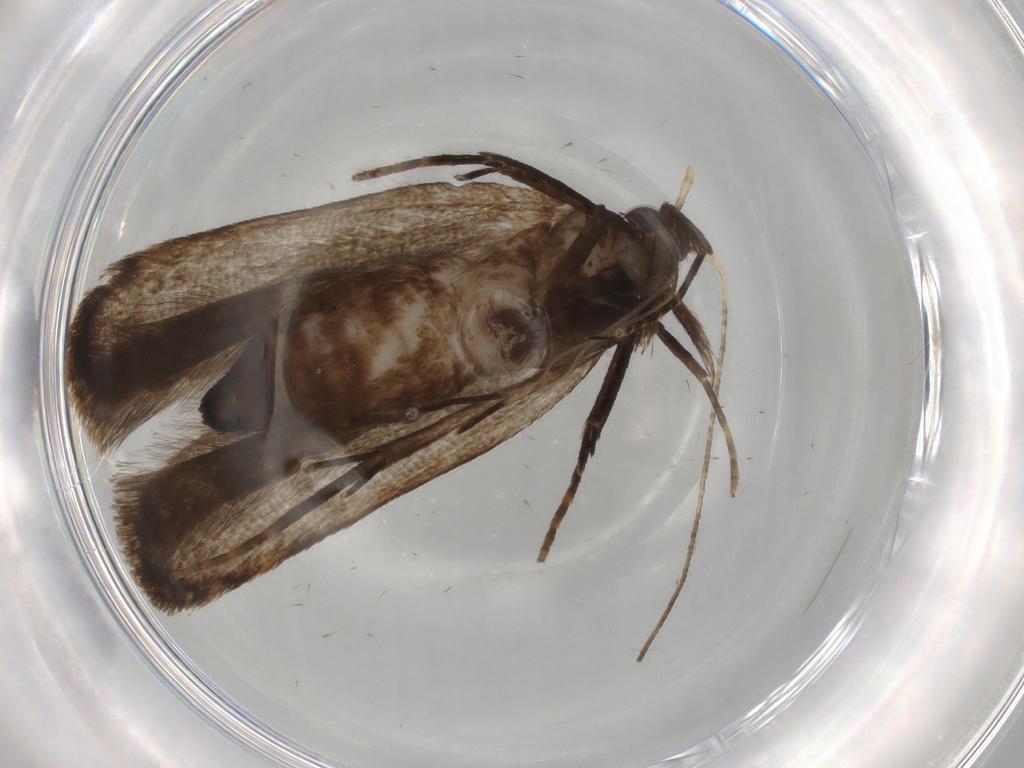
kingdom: Animalia
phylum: Arthropoda
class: Insecta
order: Lepidoptera
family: Gelechiidae
